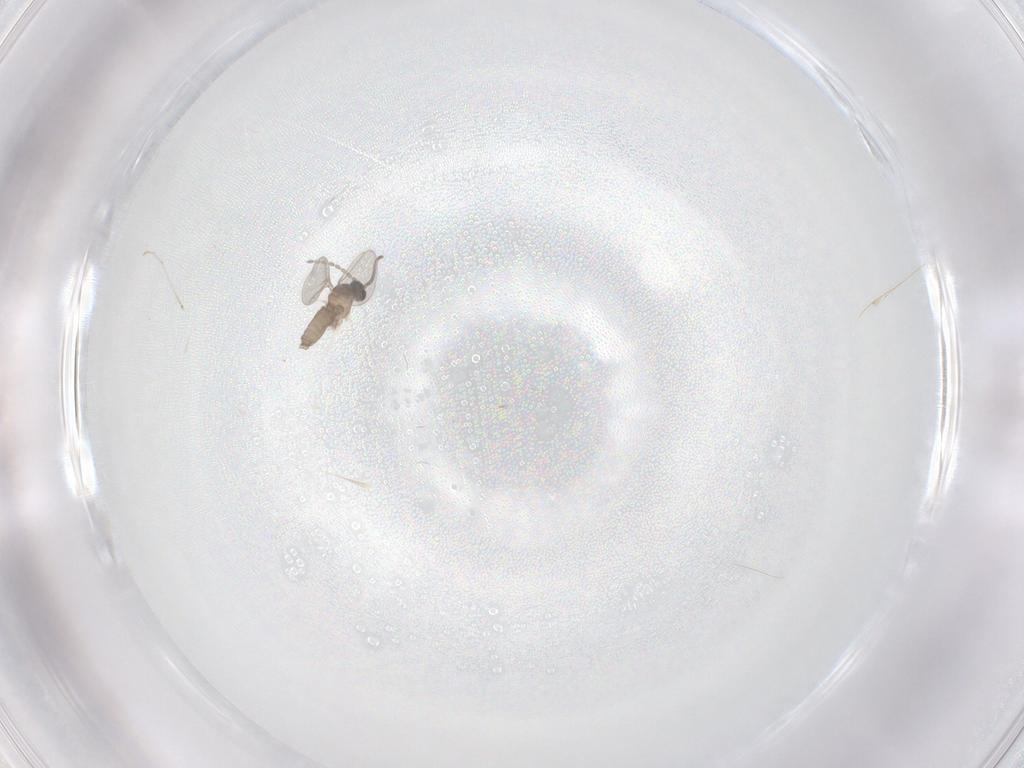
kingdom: Animalia
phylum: Arthropoda
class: Insecta
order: Diptera
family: Cecidomyiidae
